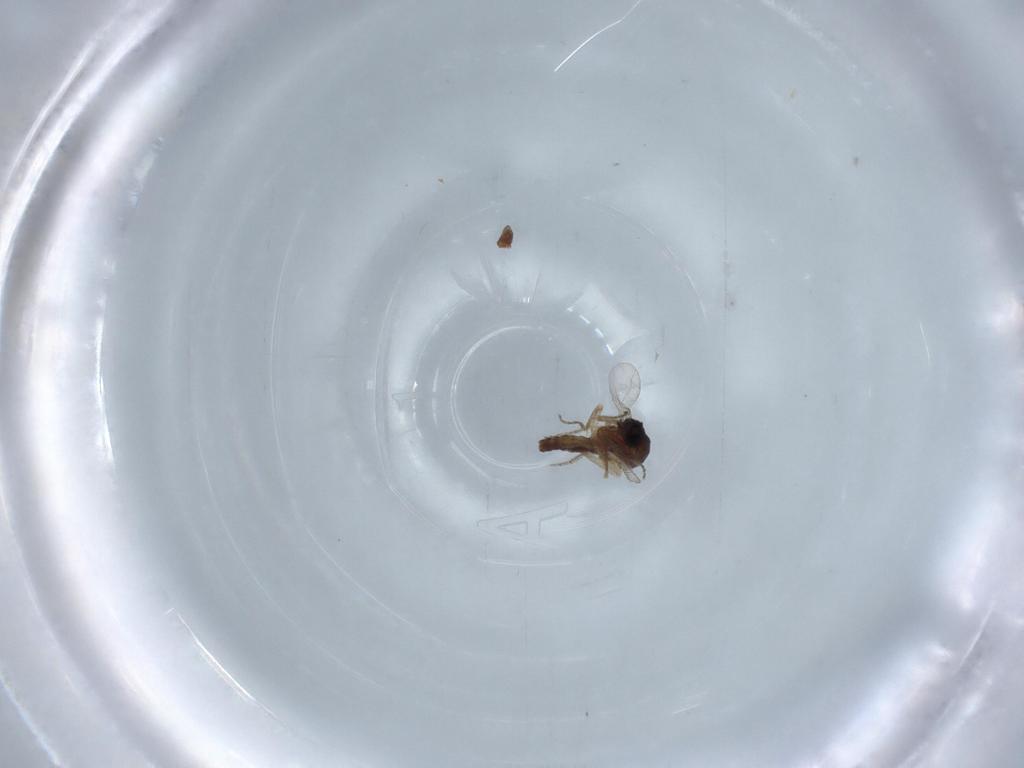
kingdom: Animalia
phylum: Arthropoda
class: Insecta
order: Diptera
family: Ceratopogonidae
